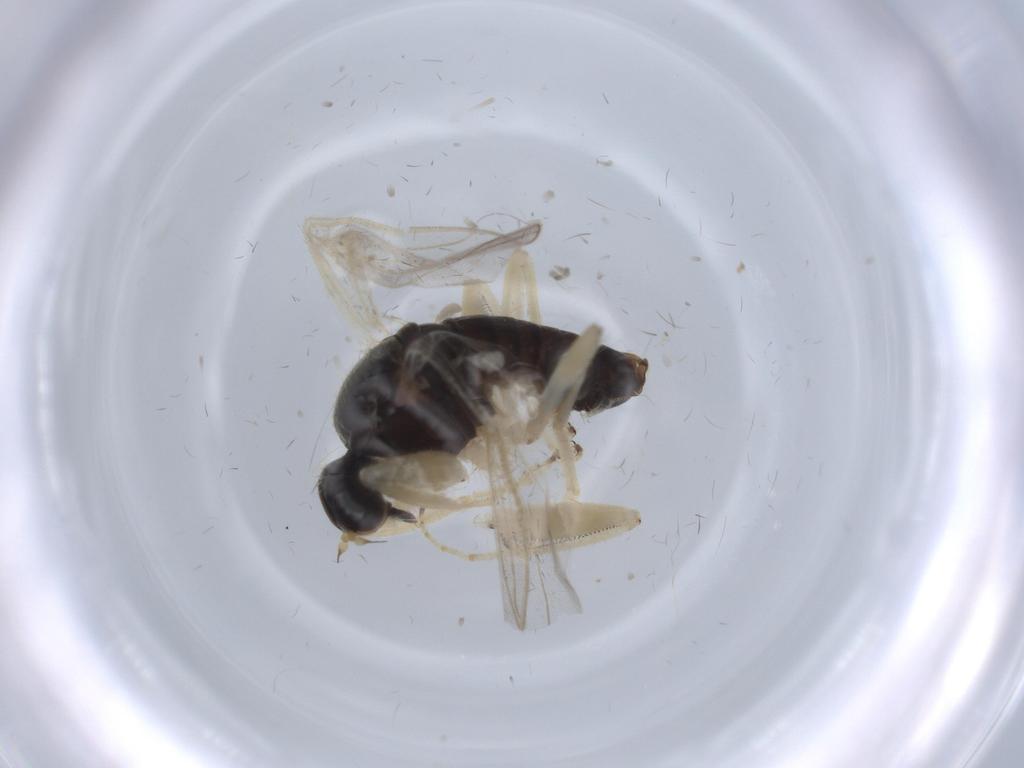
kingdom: Animalia
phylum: Arthropoda
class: Insecta
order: Diptera
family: Hybotidae
